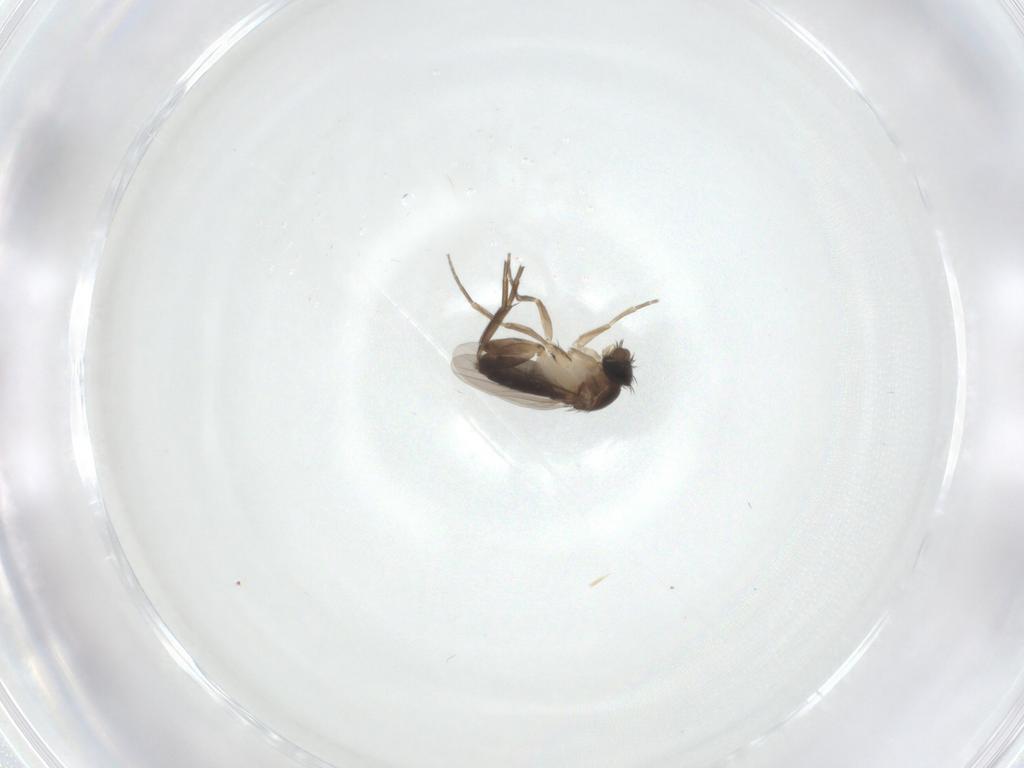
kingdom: Animalia
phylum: Arthropoda
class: Insecta
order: Diptera
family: Phoridae
